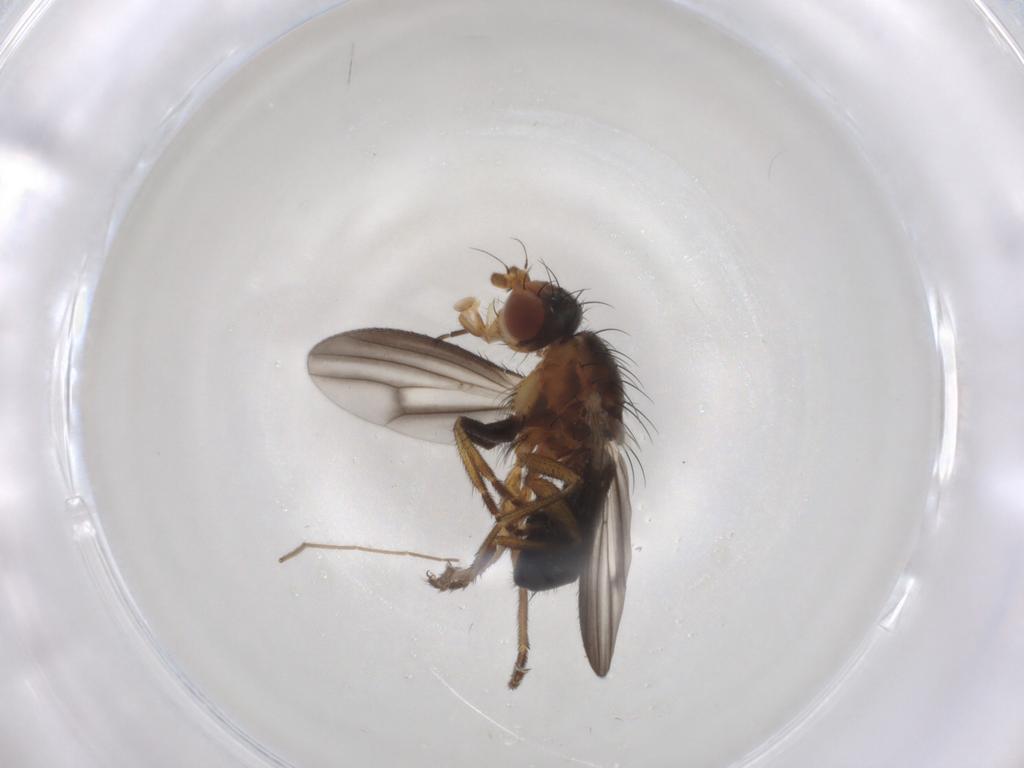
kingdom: Animalia
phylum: Arthropoda
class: Insecta
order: Diptera
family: Heleomyzidae
